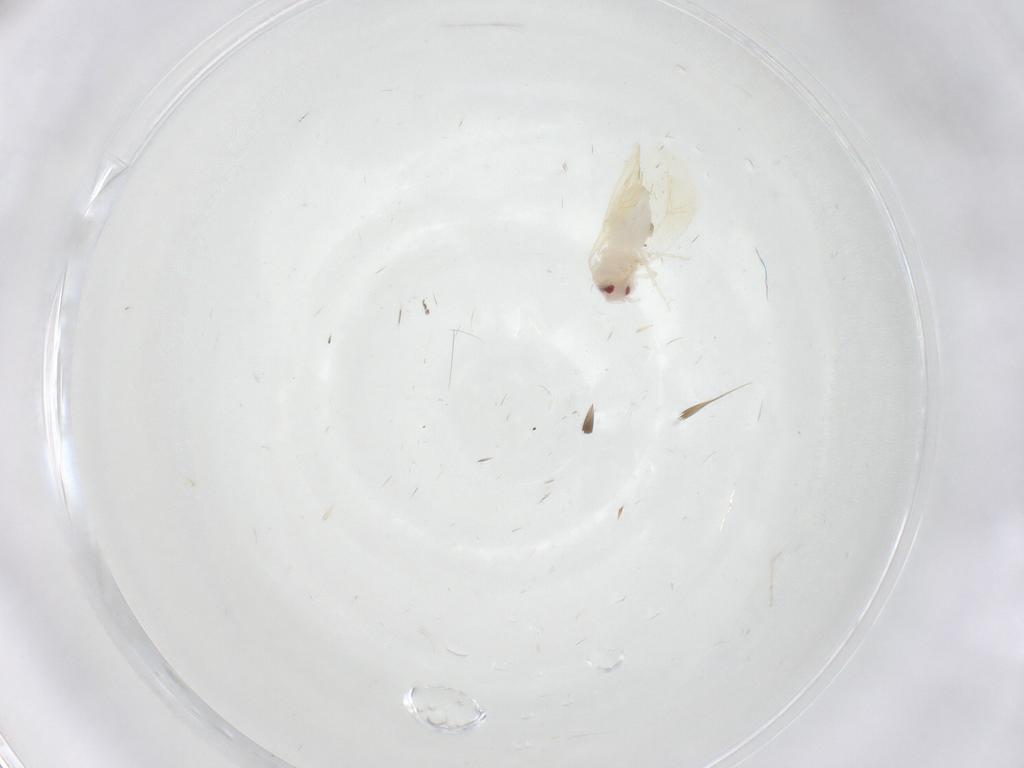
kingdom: Animalia
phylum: Arthropoda
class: Insecta
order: Hemiptera
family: Aleyrodidae
